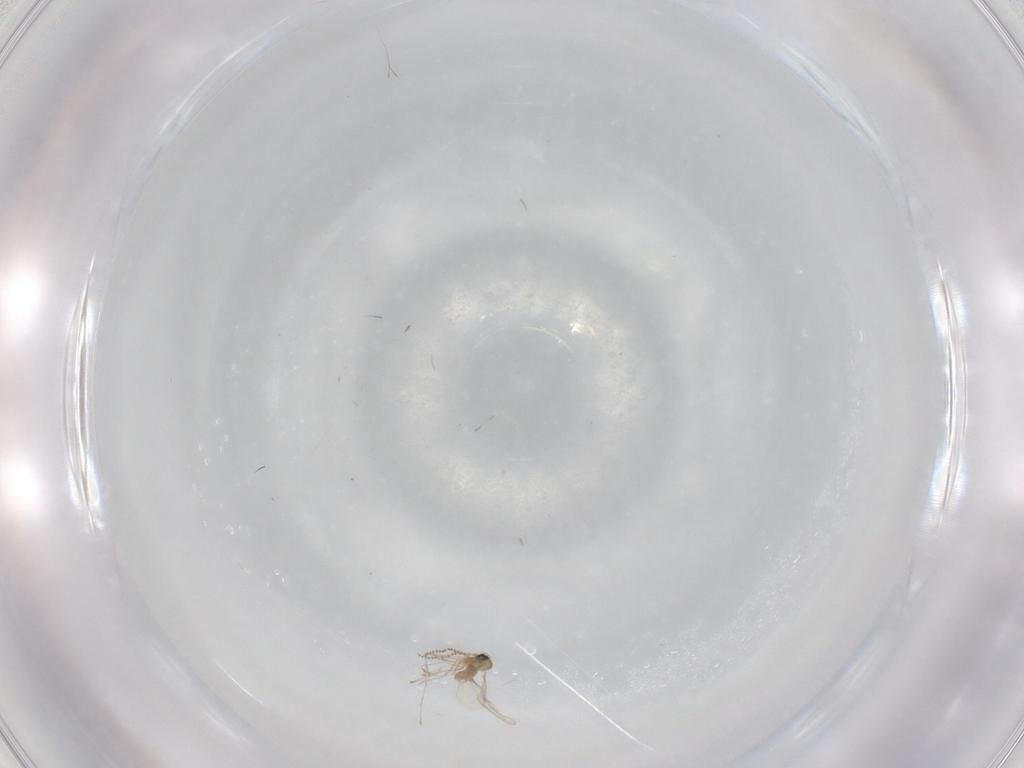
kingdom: Animalia
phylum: Arthropoda
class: Insecta
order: Diptera
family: Cecidomyiidae
